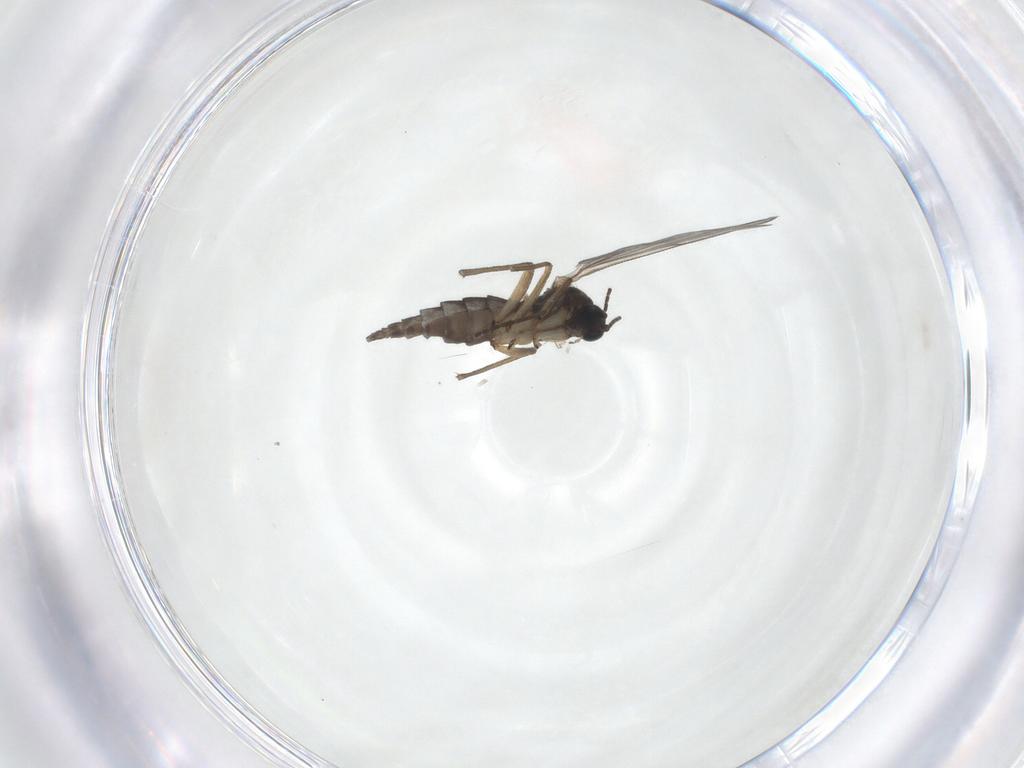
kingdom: Animalia
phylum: Arthropoda
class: Insecta
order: Diptera
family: Sciaridae
